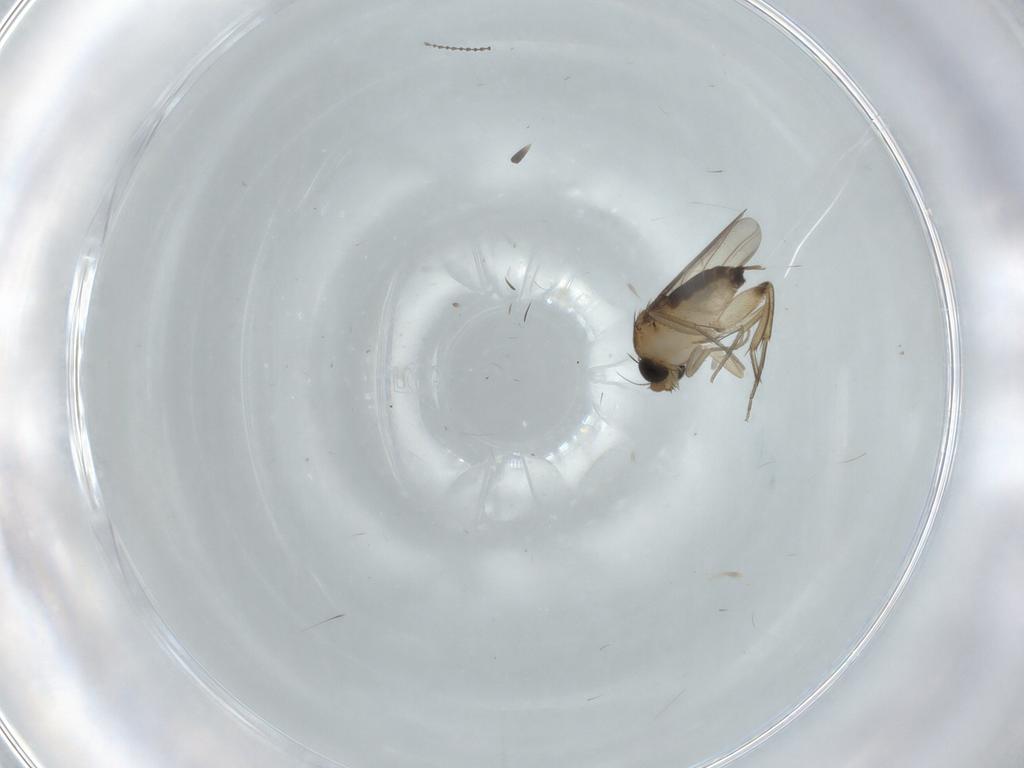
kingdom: Animalia
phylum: Arthropoda
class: Insecta
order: Diptera
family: Phoridae
